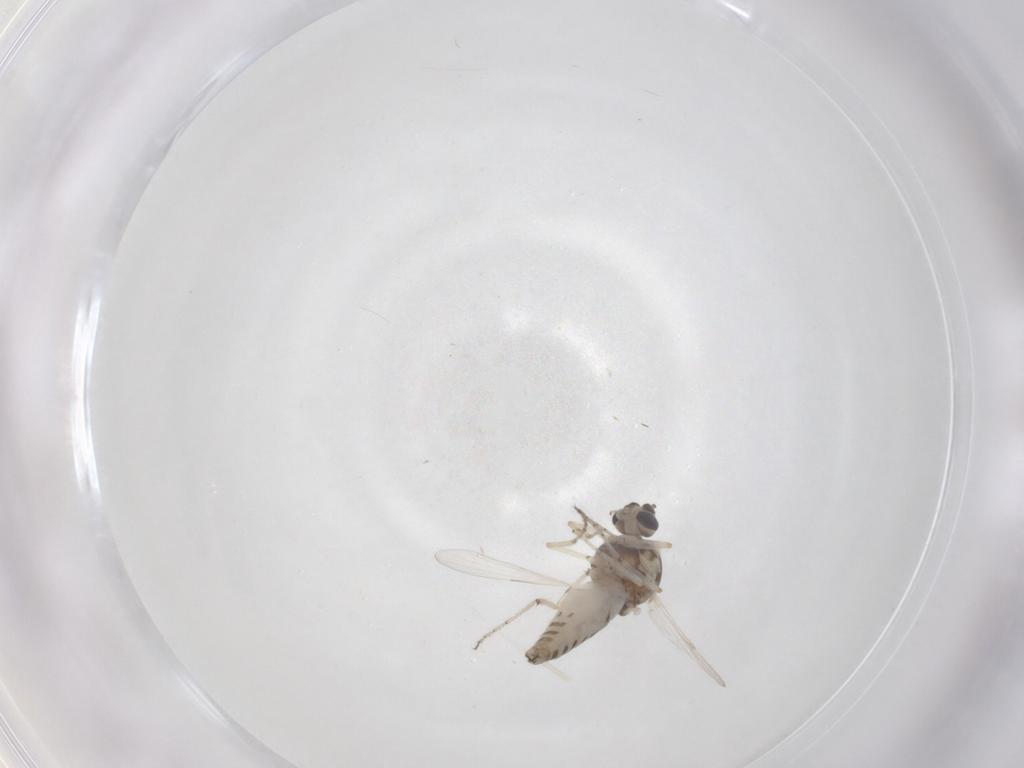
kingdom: Animalia
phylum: Arthropoda
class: Insecta
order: Diptera
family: Ceratopogonidae
